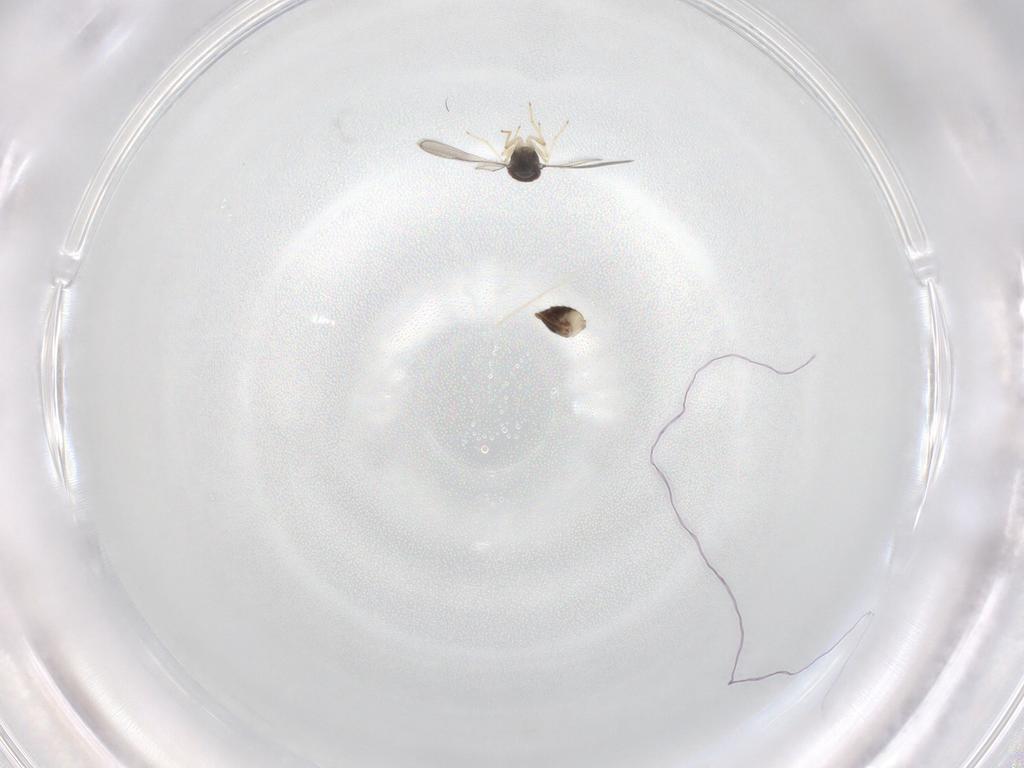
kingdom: Animalia
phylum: Arthropoda
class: Insecta
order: Hymenoptera
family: Eulophidae
